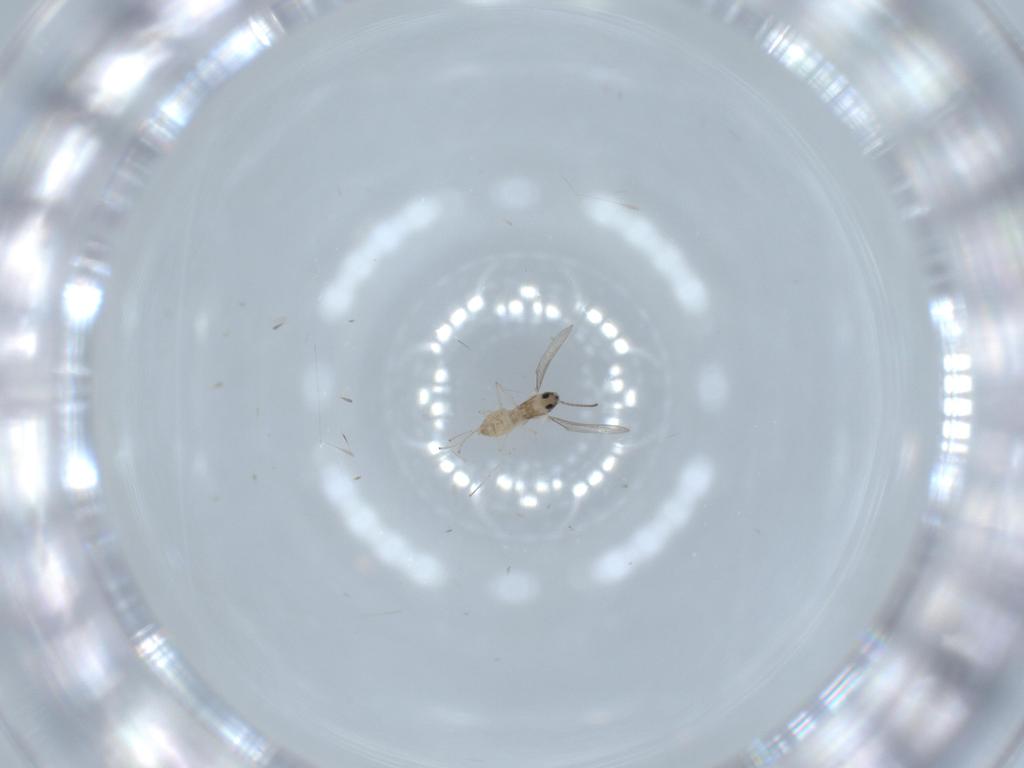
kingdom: Animalia
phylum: Arthropoda
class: Insecta
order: Diptera
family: Cecidomyiidae
